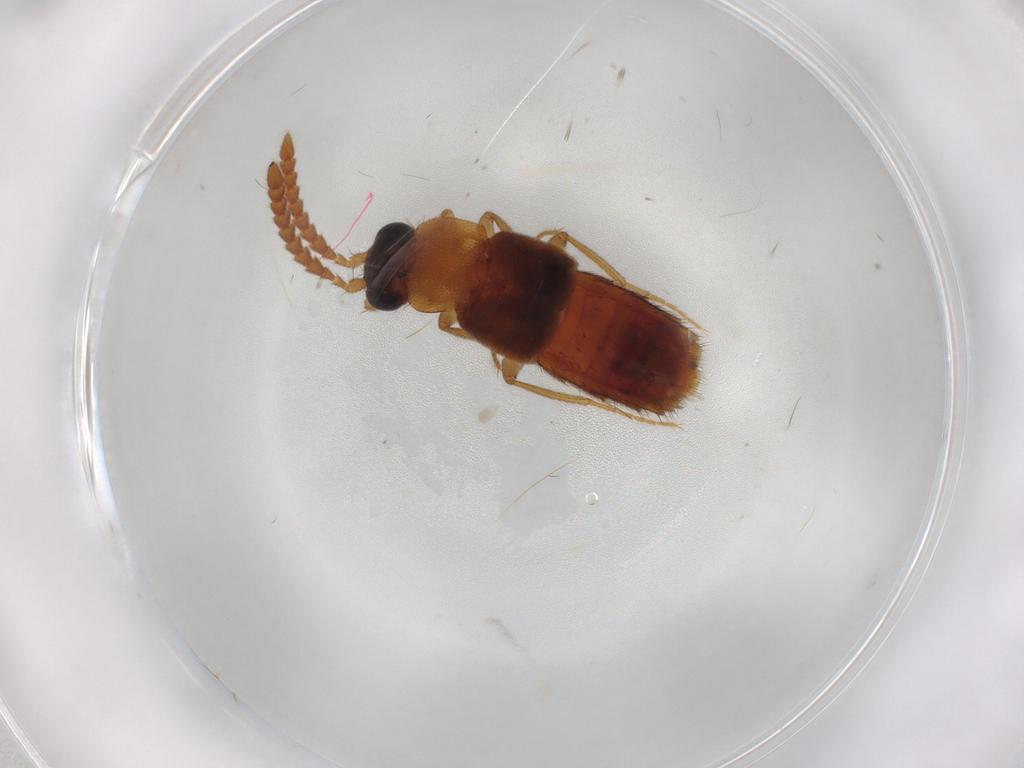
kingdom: Animalia
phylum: Arthropoda
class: Insecta
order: Coleoptera
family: Staphylinidae
